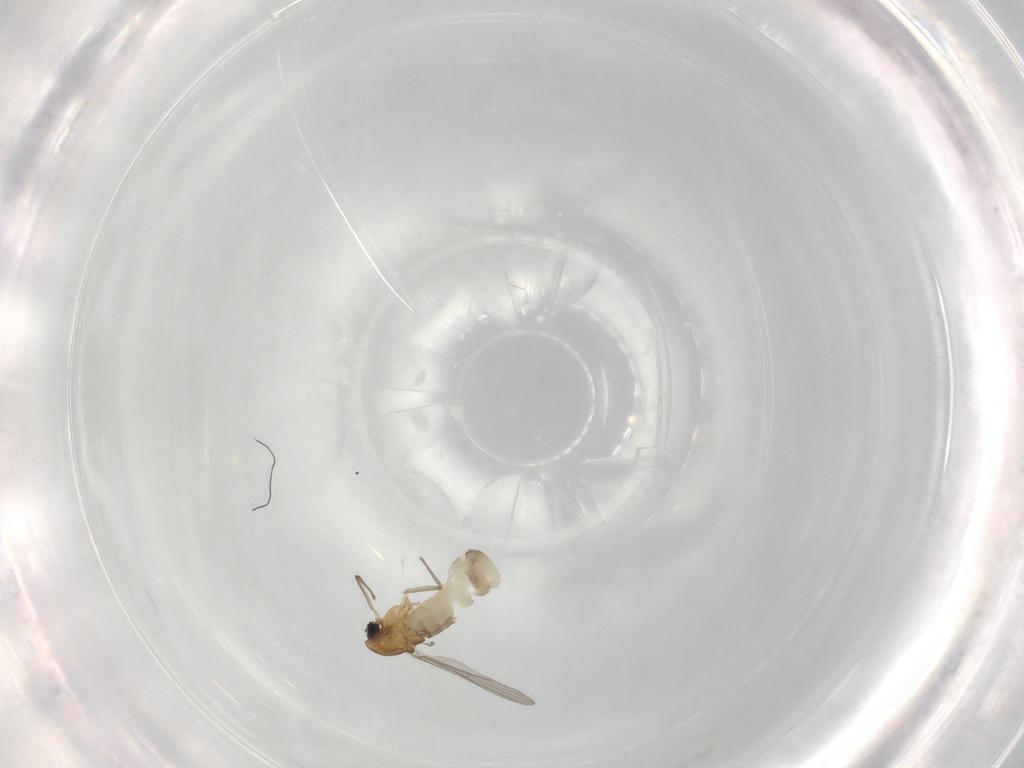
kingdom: Animalia
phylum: Arthropoda
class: Insecta
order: Diptera
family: Chironomidae
